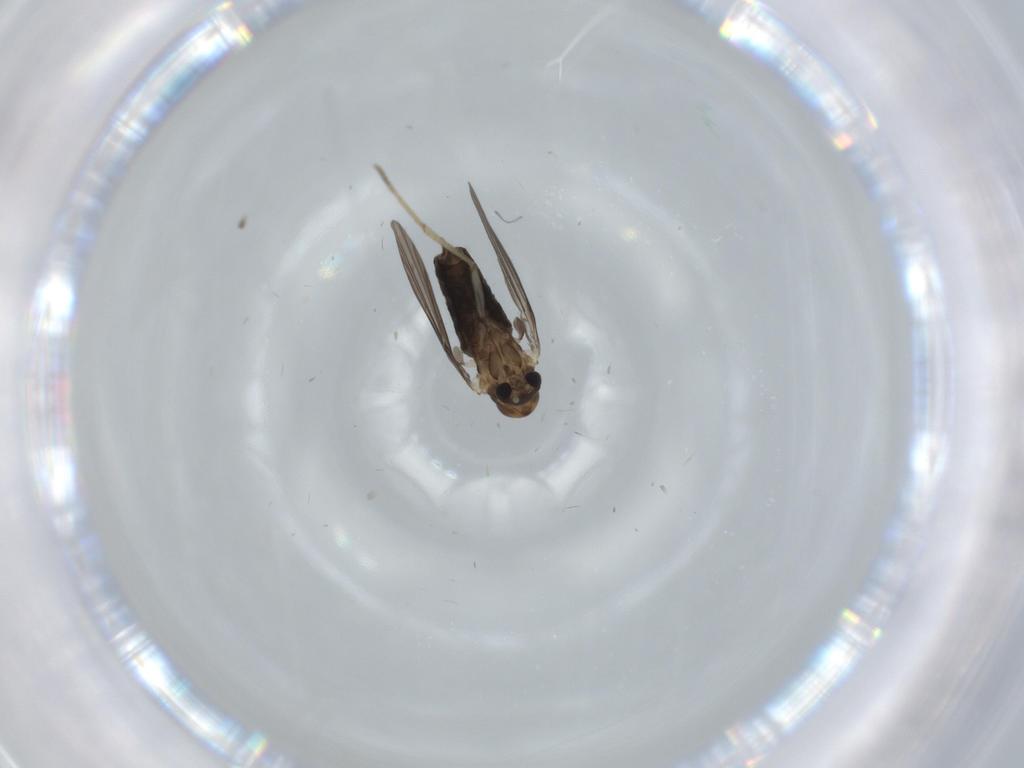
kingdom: Animalia
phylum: Arthropoda
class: Insecta
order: Diptera
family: Psychodidae
